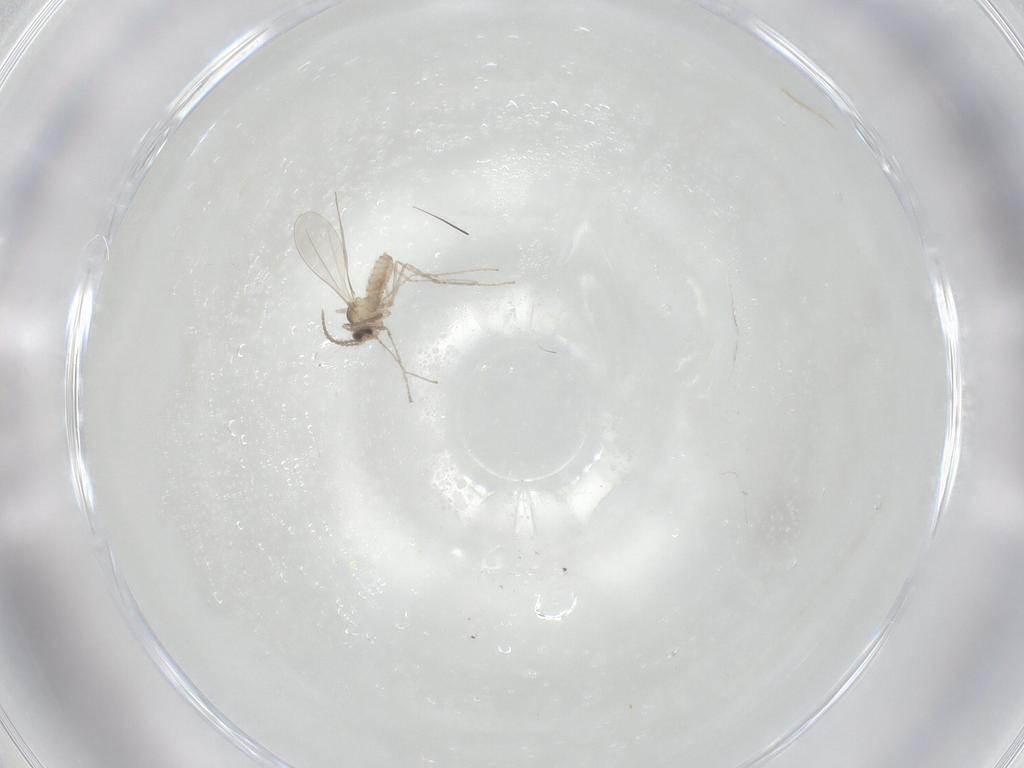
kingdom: Animalia
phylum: Arthropoda
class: Insecta
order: Diptera
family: Cecidomyiidae
